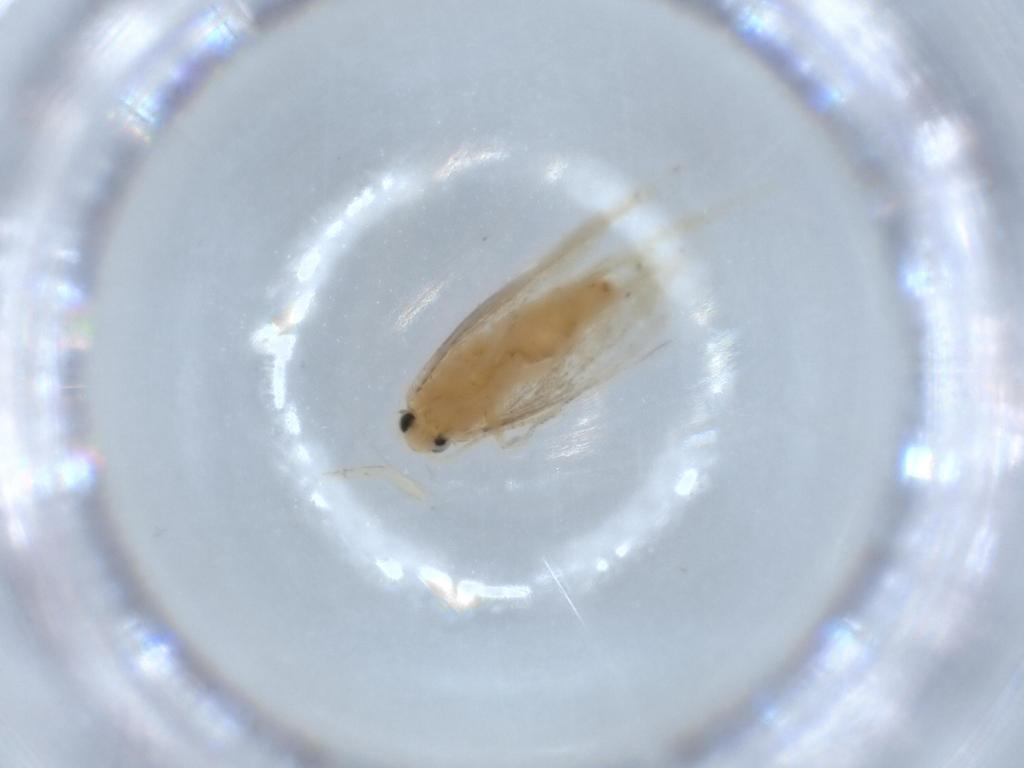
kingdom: Animalia
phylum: Arthropoda
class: Insecta
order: Lepidoptera
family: Dryadaulidae
